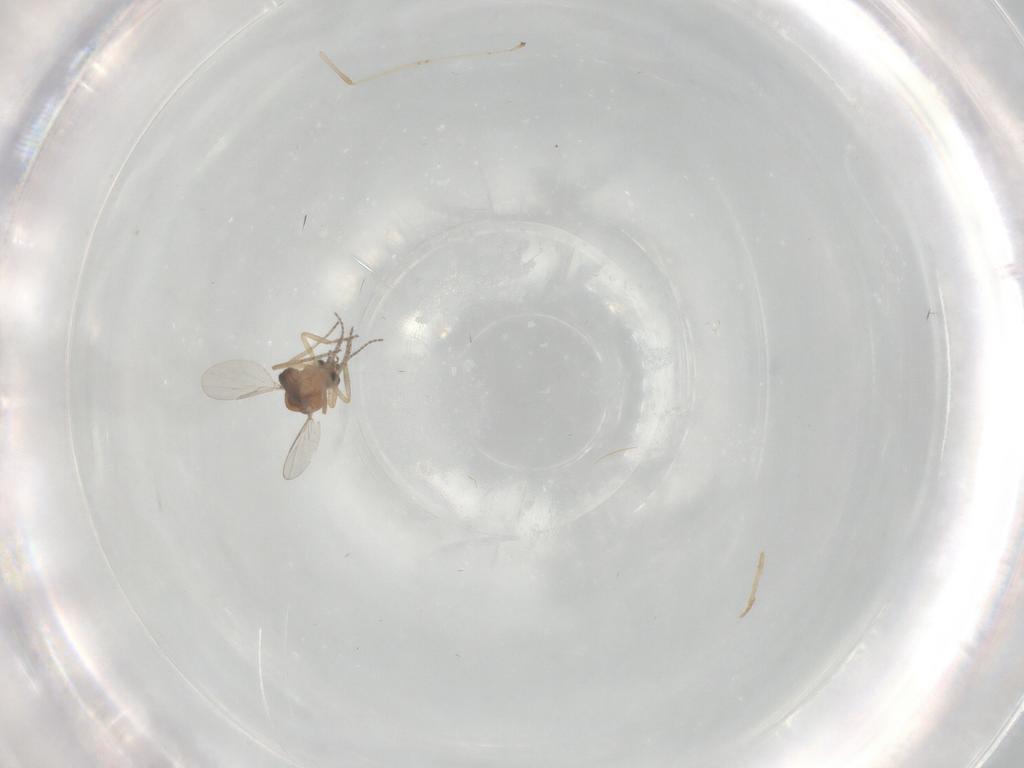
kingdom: Animalia
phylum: Arthropoda
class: Insecta
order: Diptera
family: Ceratopogonidae
